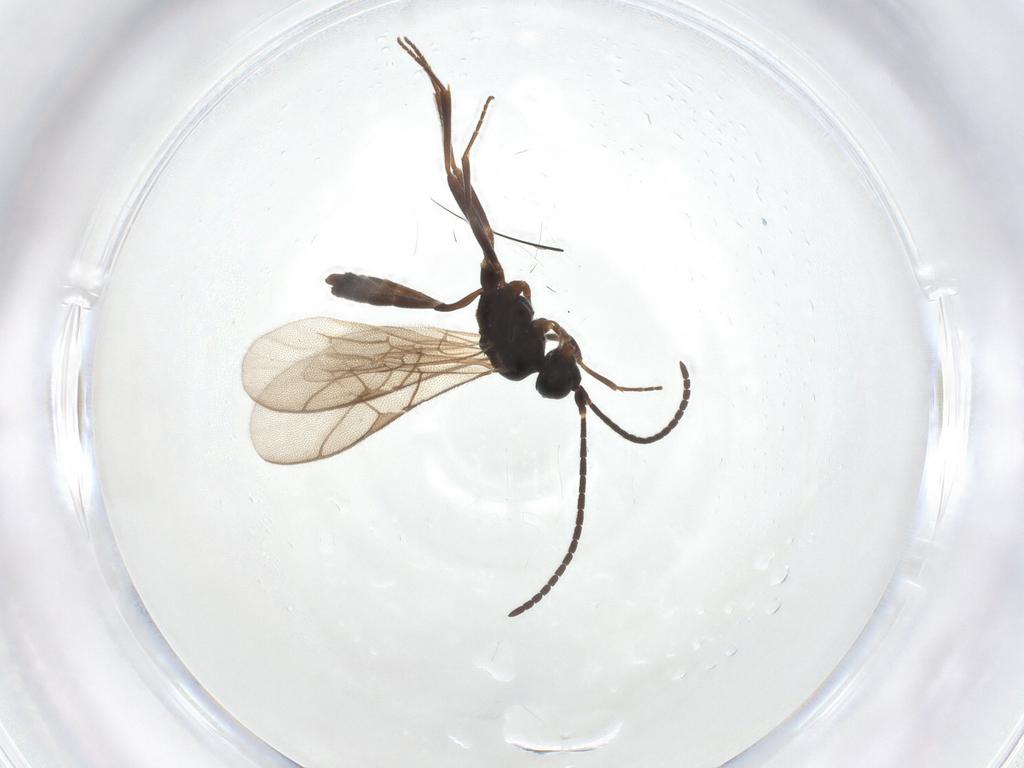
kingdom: Animalia
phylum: Arthropoda
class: Insecta
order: Hymenoptera
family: Ichneumonidae
